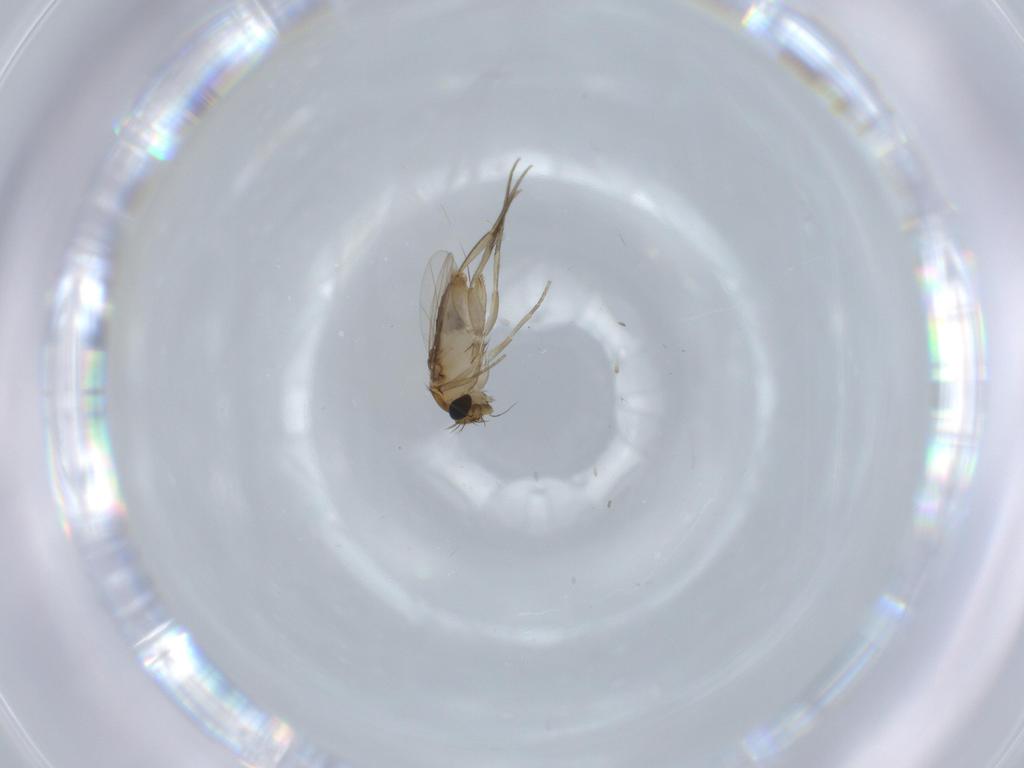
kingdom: Animalia
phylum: Arthropoda
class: Insecta
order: Diptera
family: Phoridae
